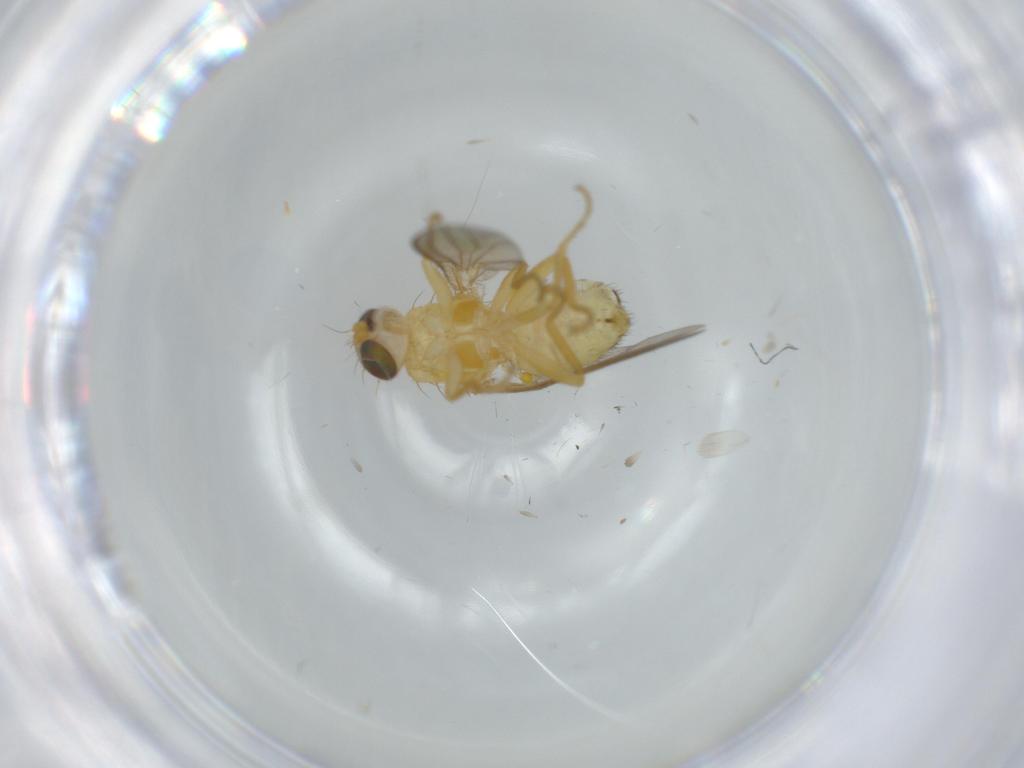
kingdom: Animalia
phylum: Arthropoda
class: Insecta
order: Diptera
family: Chyromyidae
